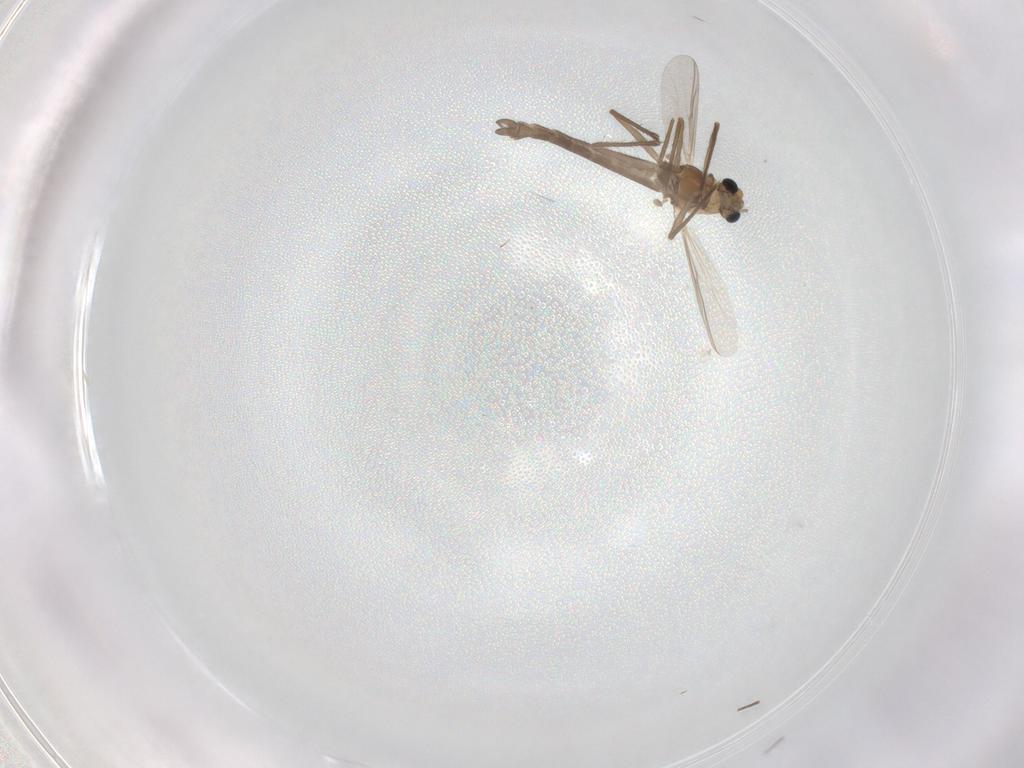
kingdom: Animalia
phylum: Arthropoda
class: Insecta
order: Diptera
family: Chironomidae
